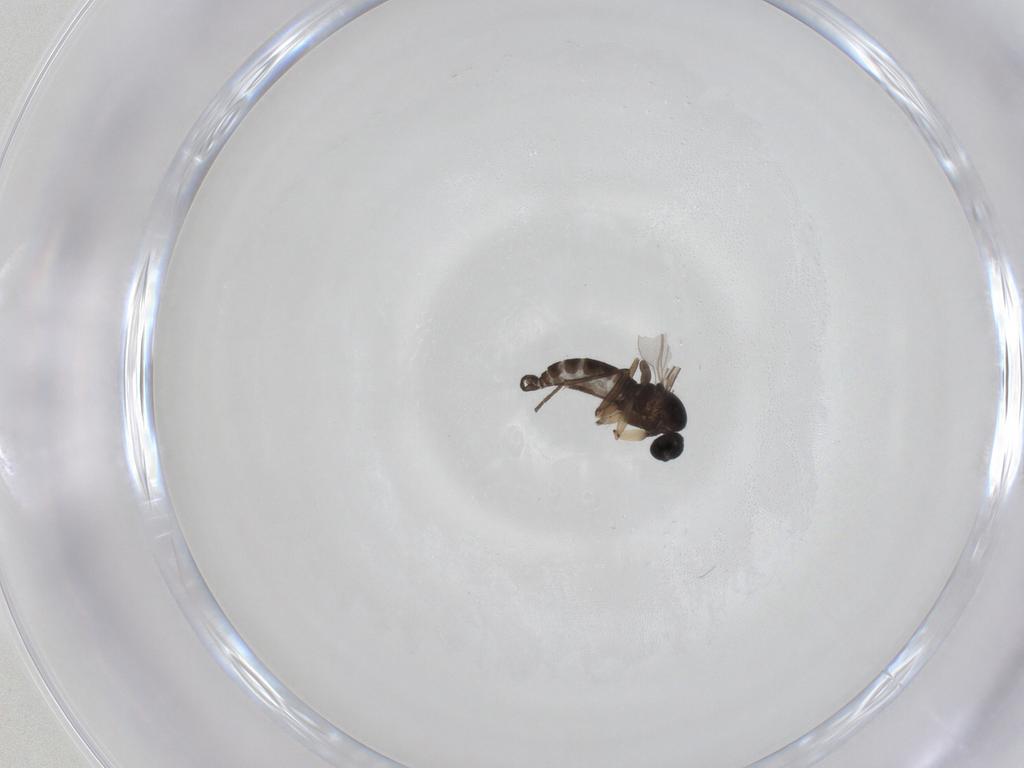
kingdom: Animalia
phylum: Arthropoda
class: Insecta
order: Diptera
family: Sciaridae
